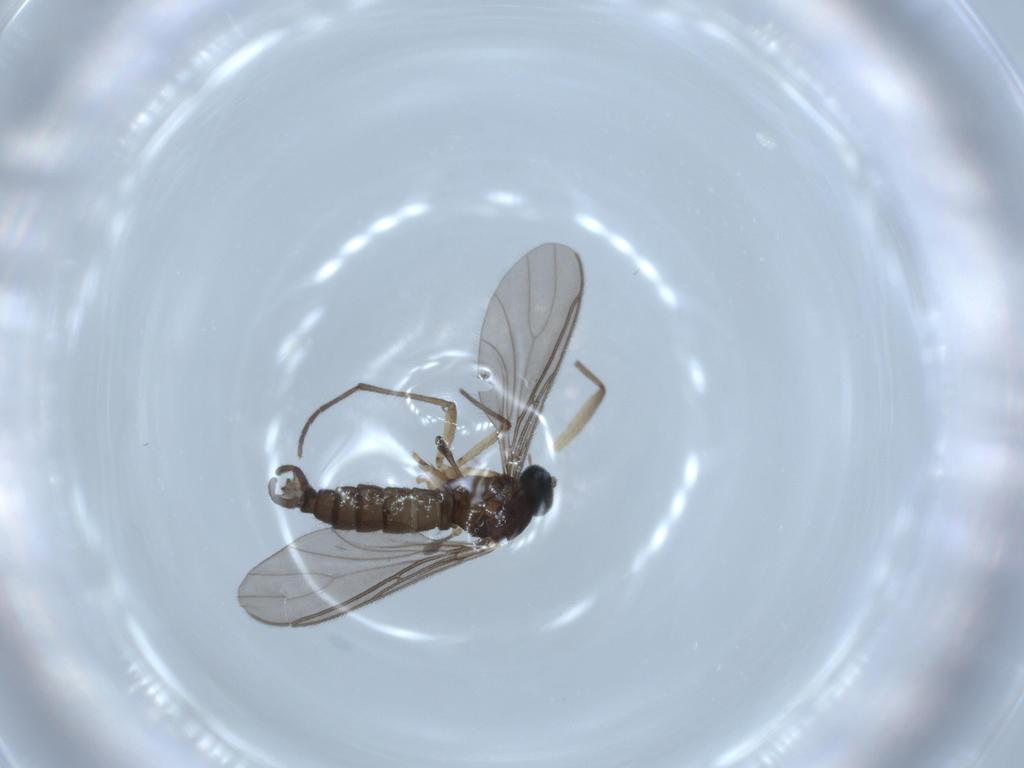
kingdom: Animalia
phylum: Arthropoda
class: Insecta
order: Diptera
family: Sciaridae
